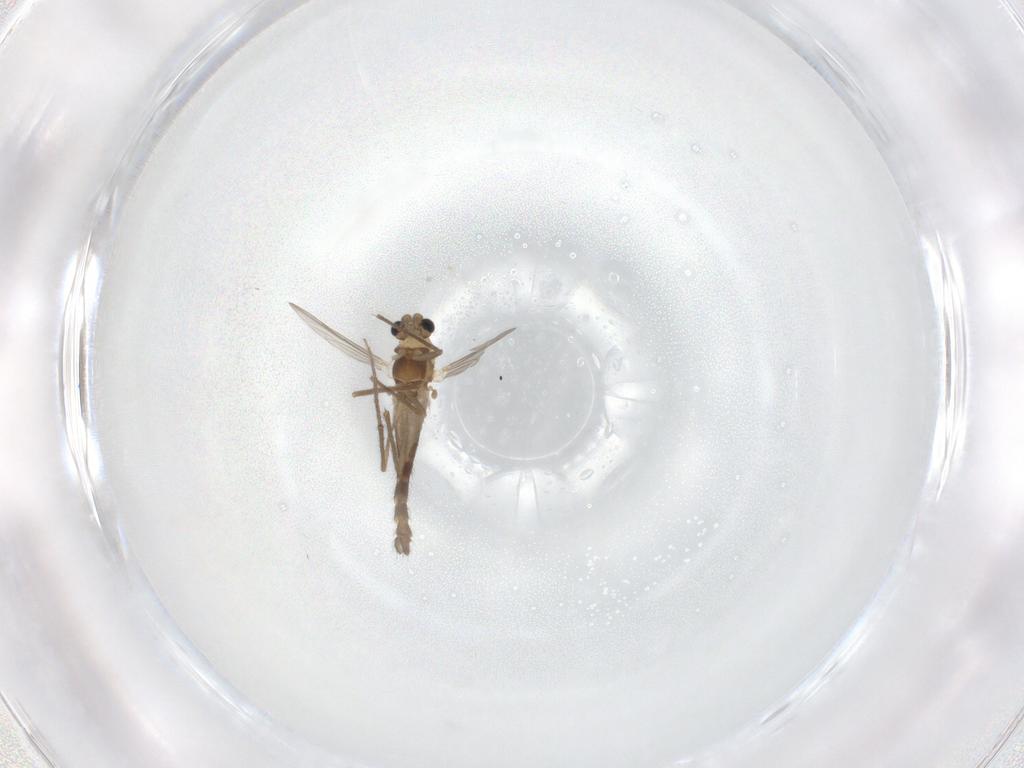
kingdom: Animalia
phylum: Arthropoda
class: Insecta
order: Diptera
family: Chironomidae
